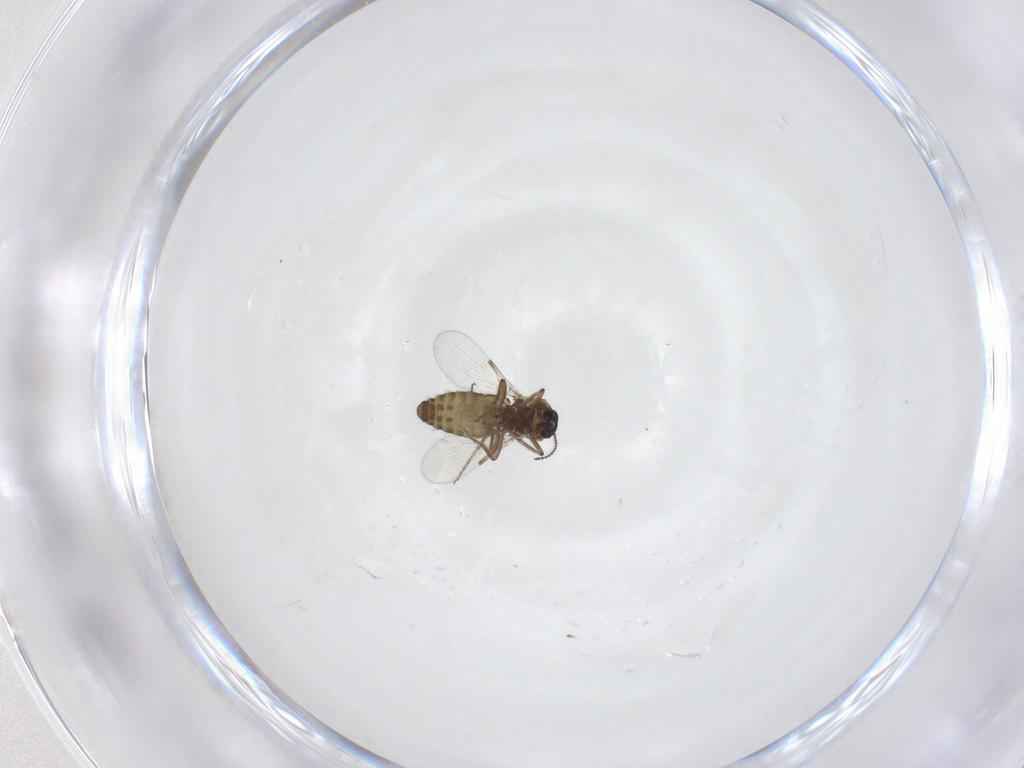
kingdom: Animalia
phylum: Arthropoda
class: Insecta
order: Diptera
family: Ceratopogonidae
